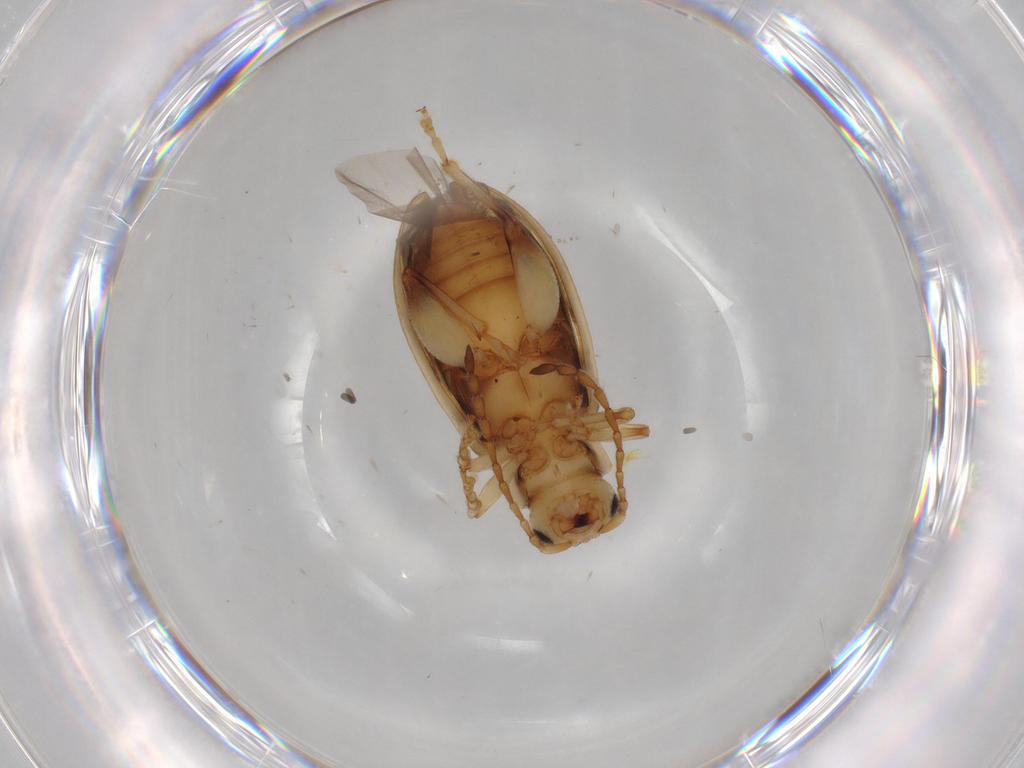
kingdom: Animalia
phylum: Arthropoda
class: Insecta
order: Coleoptera
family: Chrysomelidae
